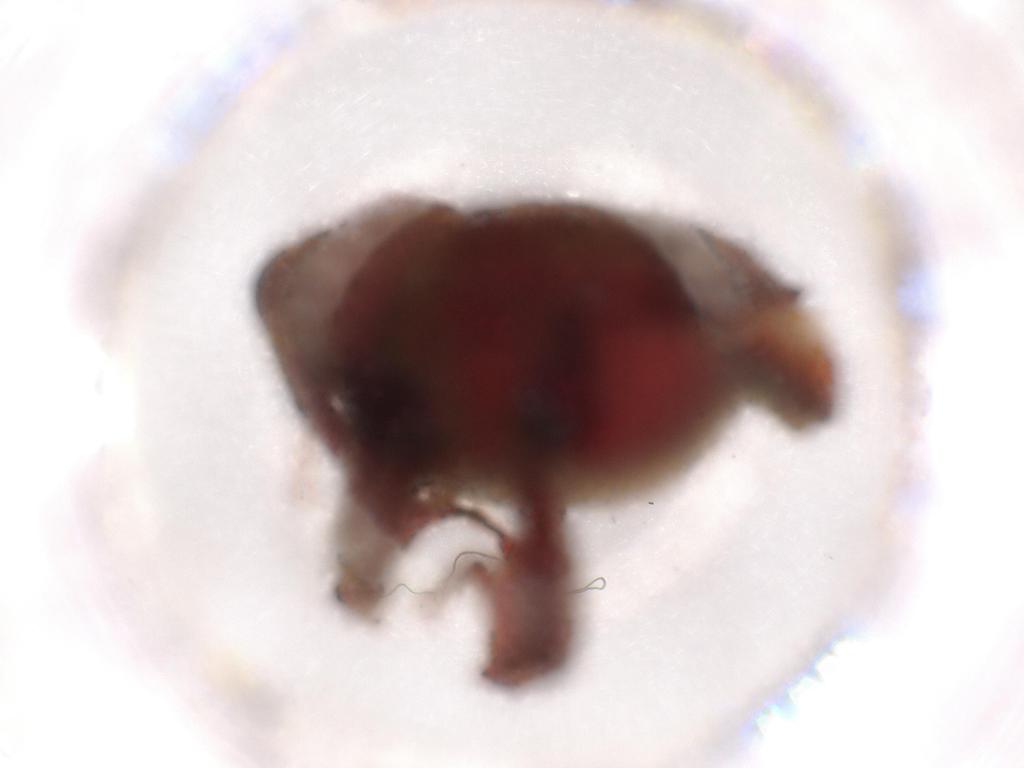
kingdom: Animalia
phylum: Arthropoda
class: Insecta
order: Coleoptera
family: Chrysomelidae
